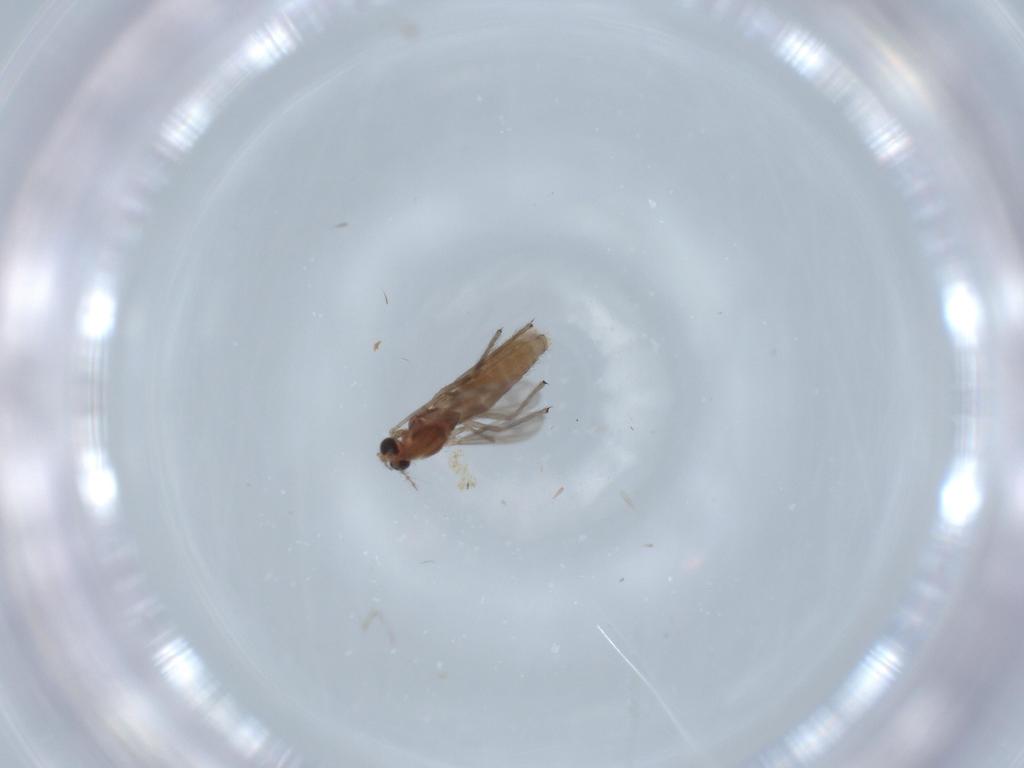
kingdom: Animalia
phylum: Arthropoda
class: Insecta
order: Diptera
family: Chironomidae
